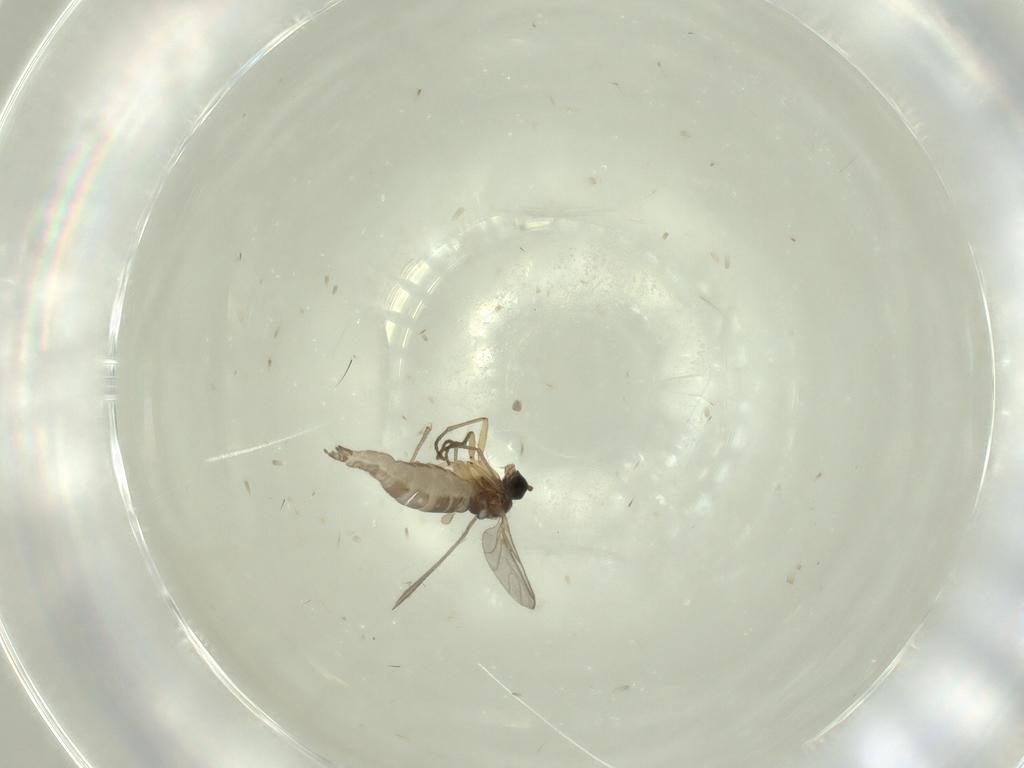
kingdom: Animalia
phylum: Arthropoda
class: Insecta
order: Diptera
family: Sciaridae
